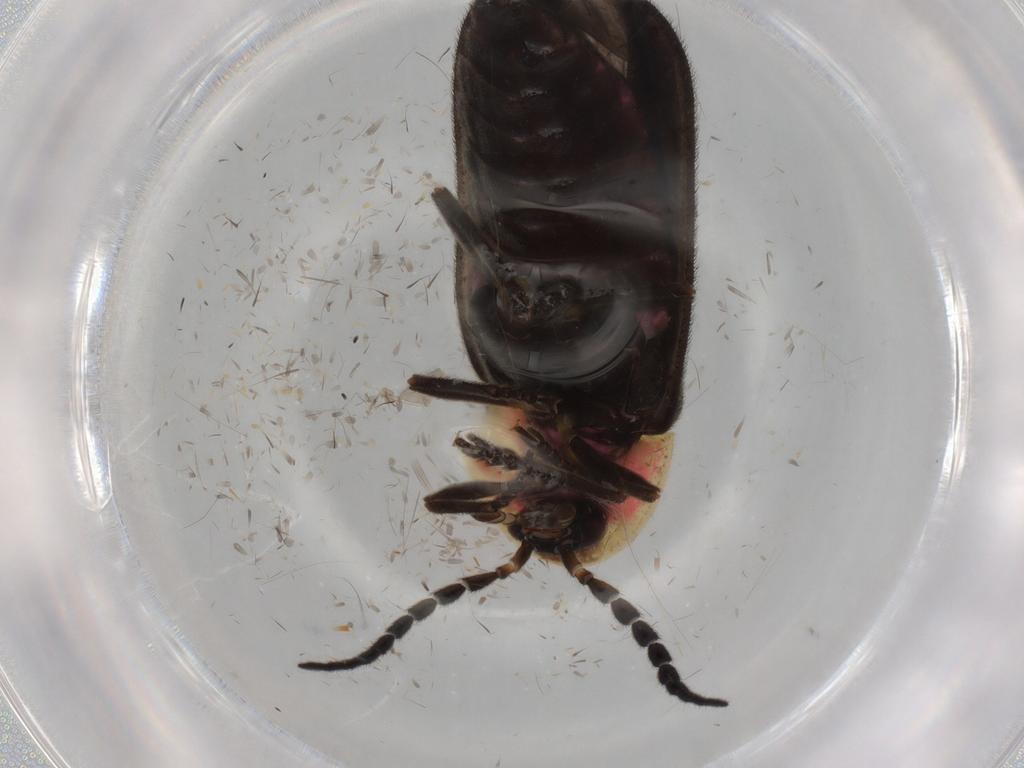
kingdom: Animalia
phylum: Arthropoda
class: Insecta
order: Coleoptera
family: Lampyridae
